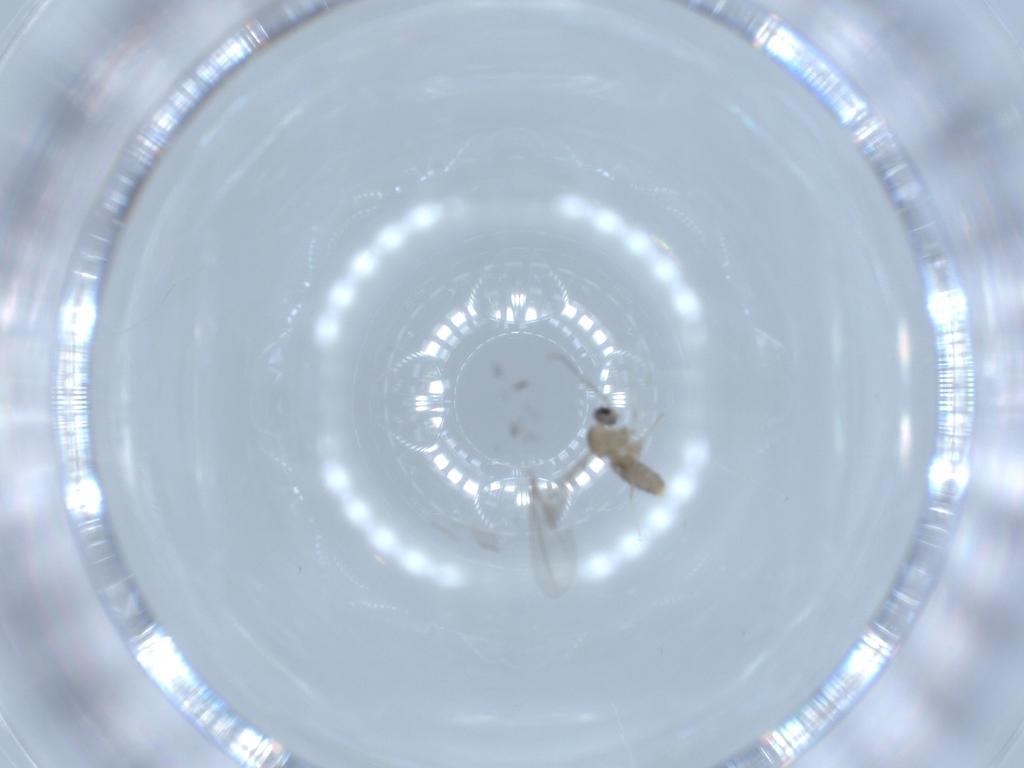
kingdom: Animalia
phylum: Arthropoda
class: Insecta
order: Diptera
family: Cecidomyiidae
